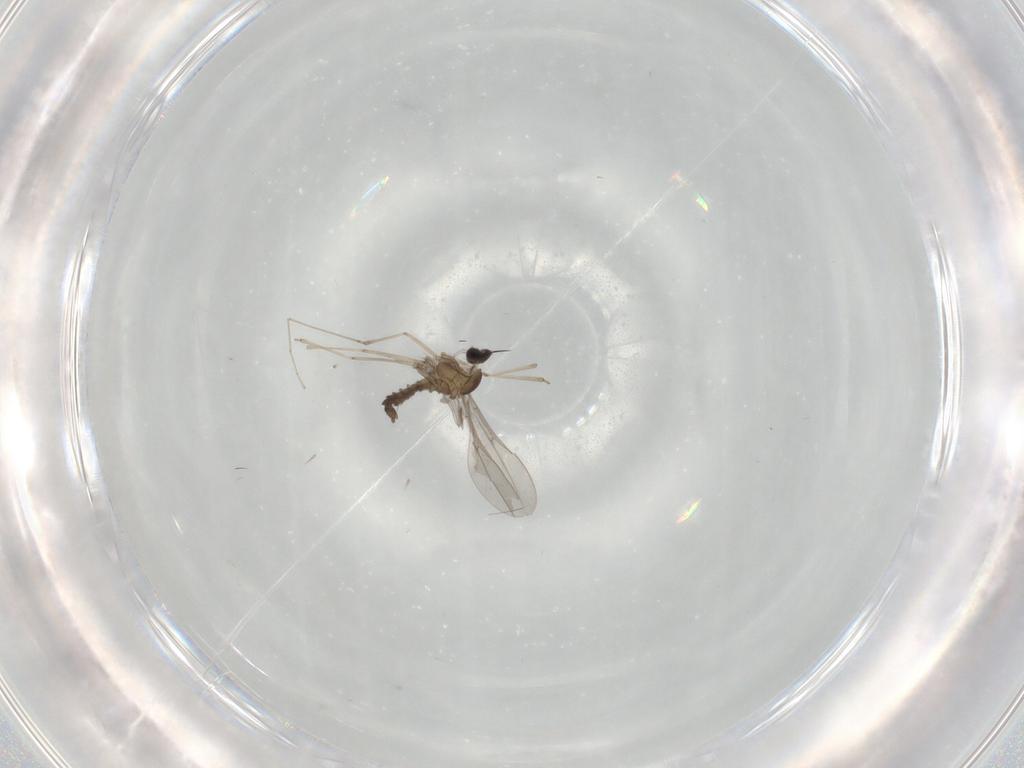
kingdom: Animalia
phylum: Arthropoda
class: Insecta
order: Diptera
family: Cecidomyiidae
